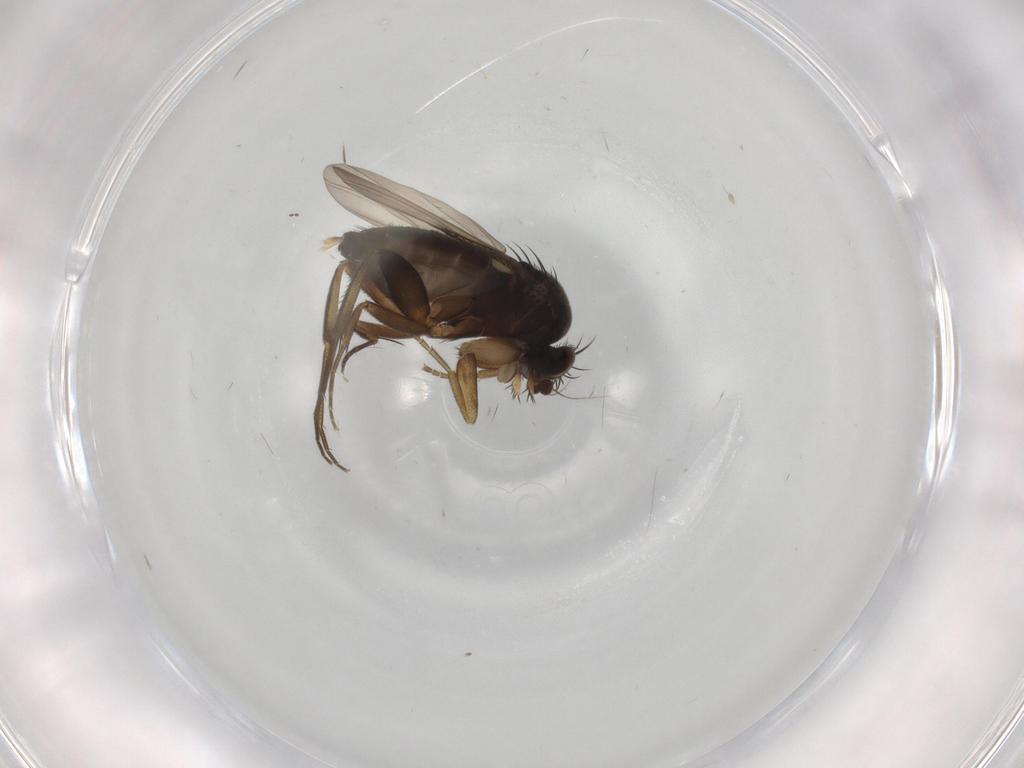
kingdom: Animalia
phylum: Arthropoda
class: Insecta
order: Diptera
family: Phoridae
